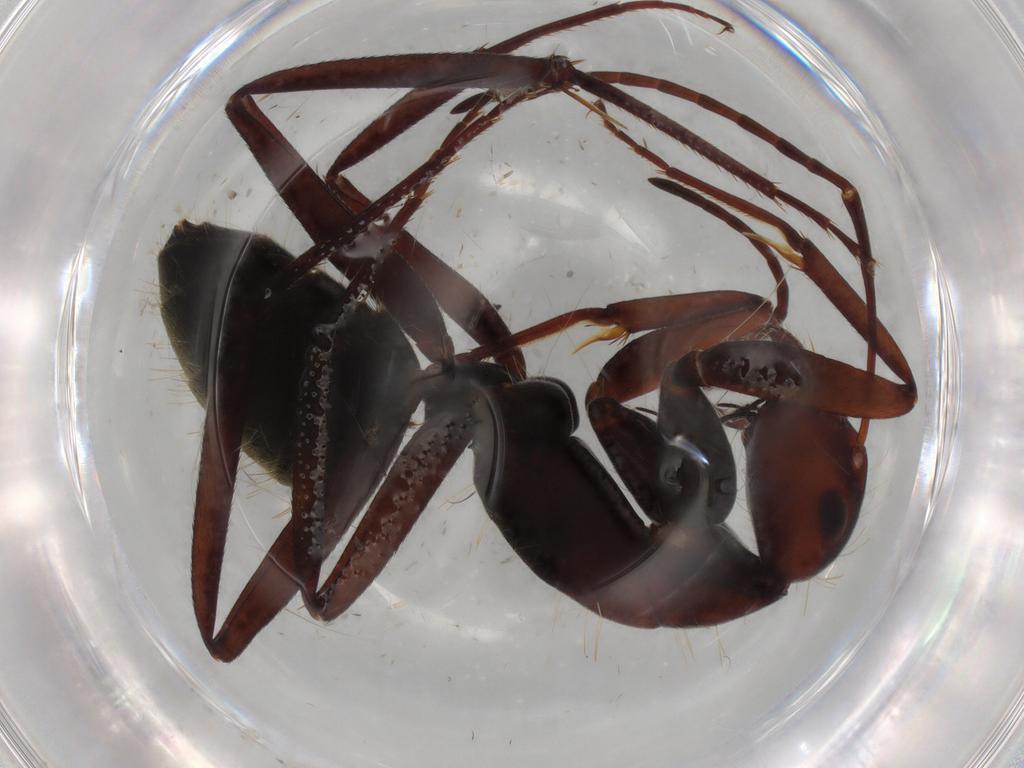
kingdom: Animalia
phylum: Arthropoda
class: Insecta
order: Hymenoptera
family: Formicidae
